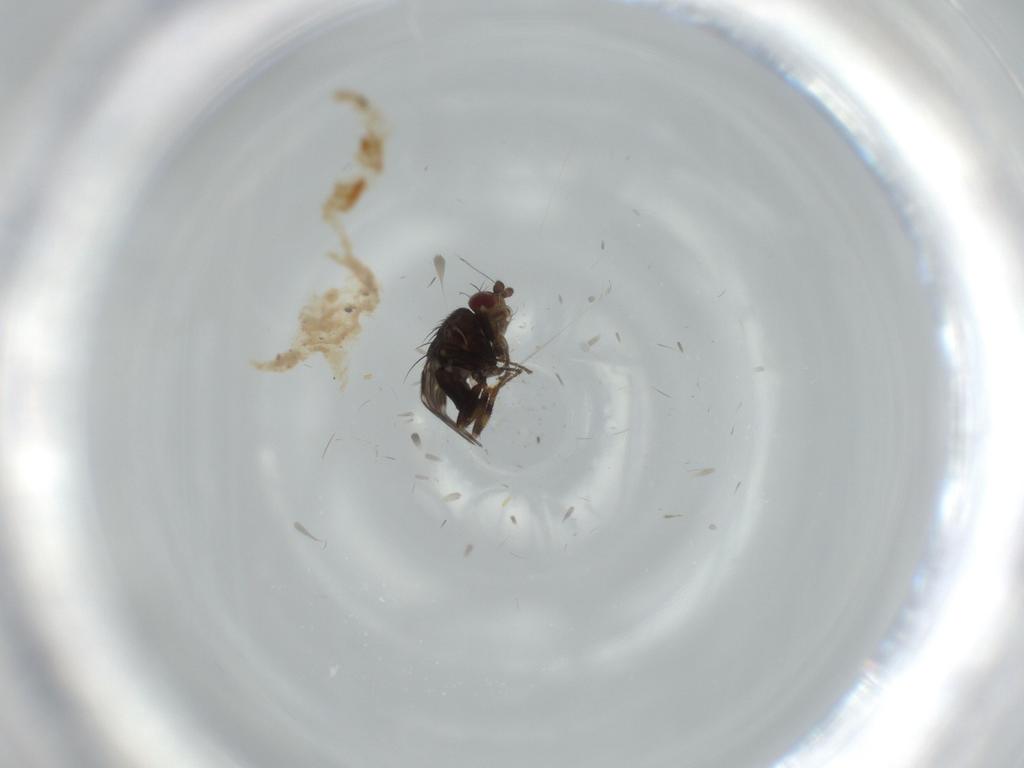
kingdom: Animalia
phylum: Arthropoda
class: Insecta
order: Diptera
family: Sphaeroceridae
